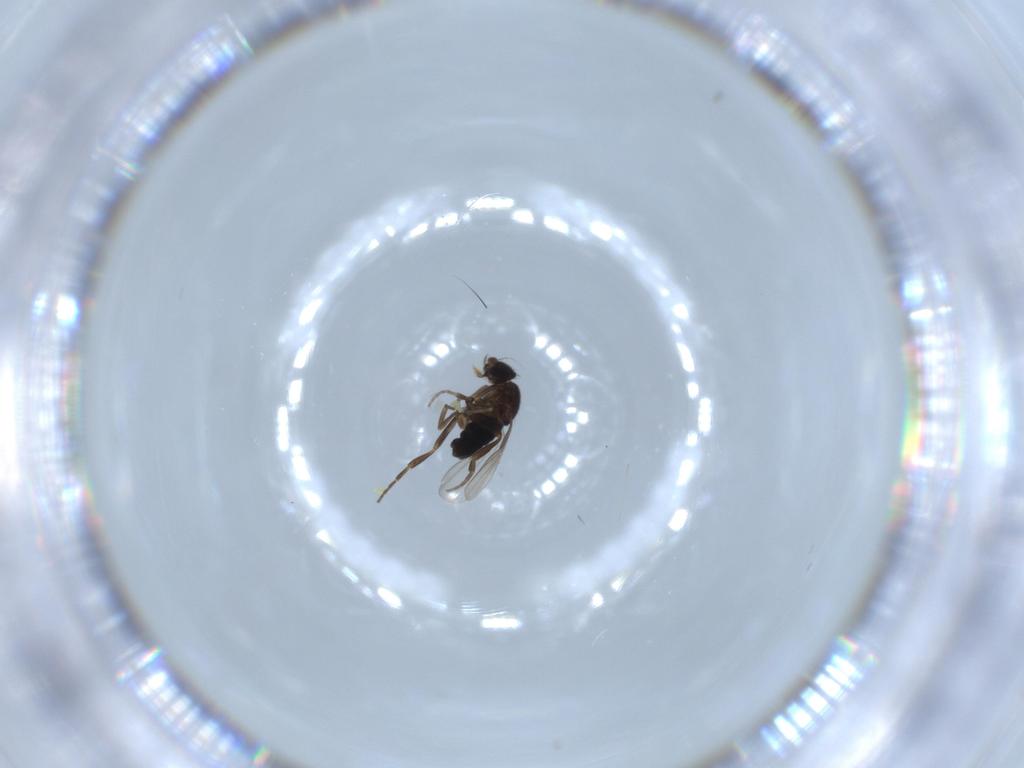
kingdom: Animalia
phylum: Arthropoda
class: Insecta
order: Diptera
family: Phoridae
